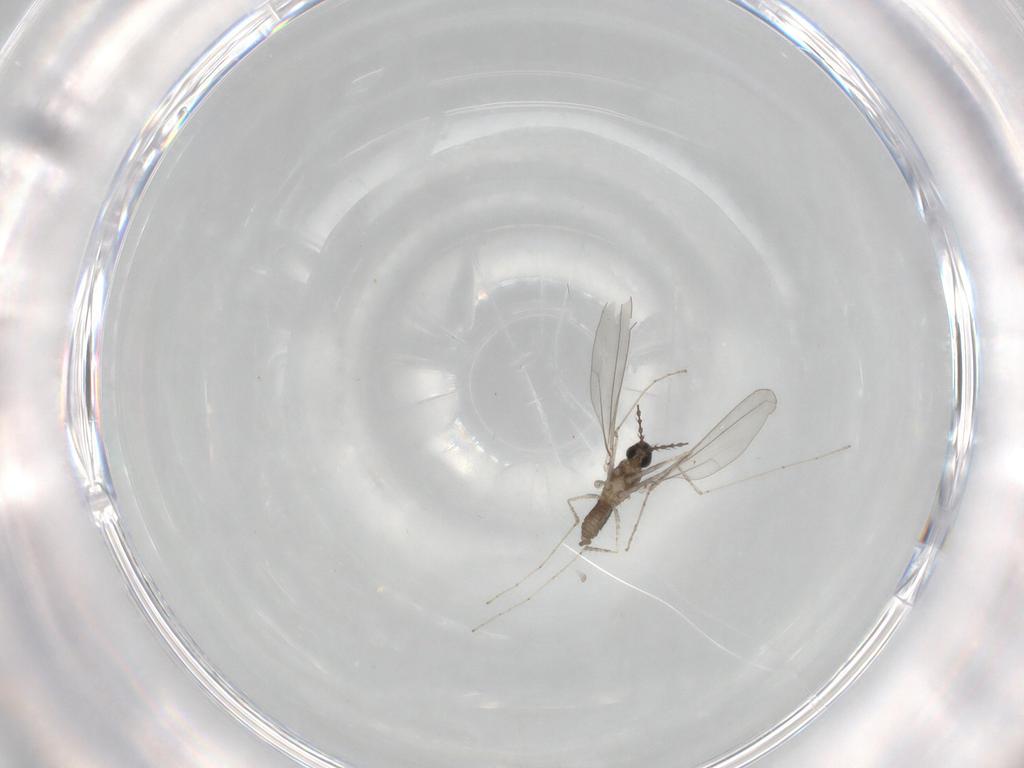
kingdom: Animalia
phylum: Arthropoda
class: Insecta
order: Diptera
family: Cecidomyiidae
